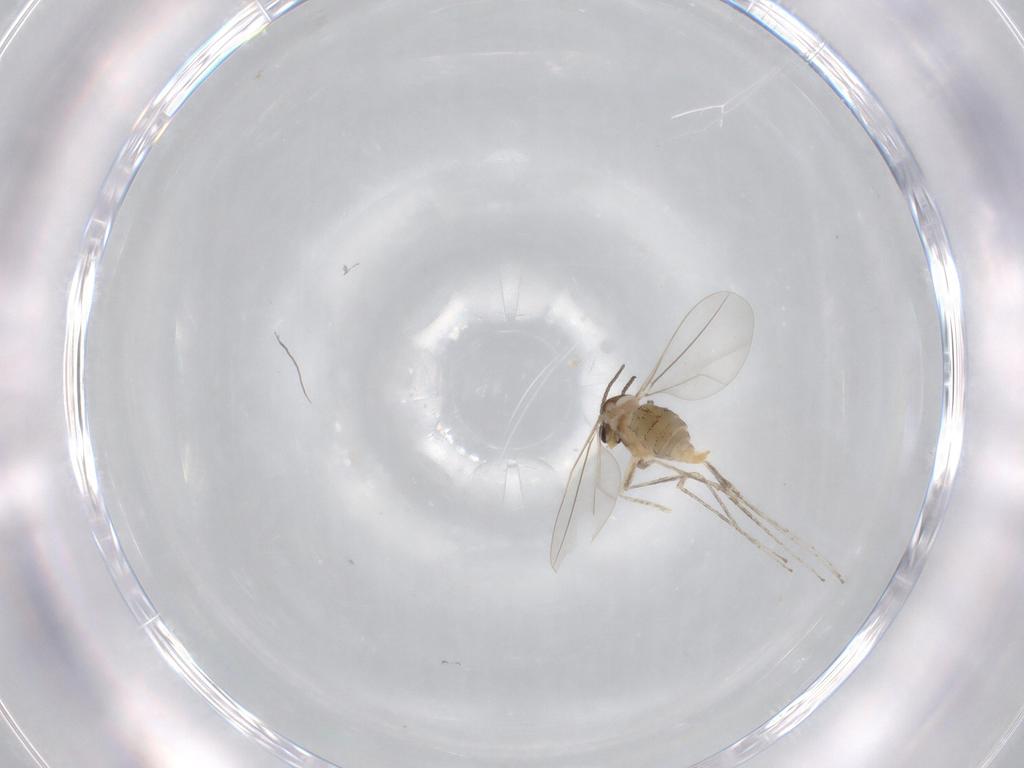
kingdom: Animalia
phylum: Arthropoda
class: Insecta
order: Diptera
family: Cecidomyiidae
